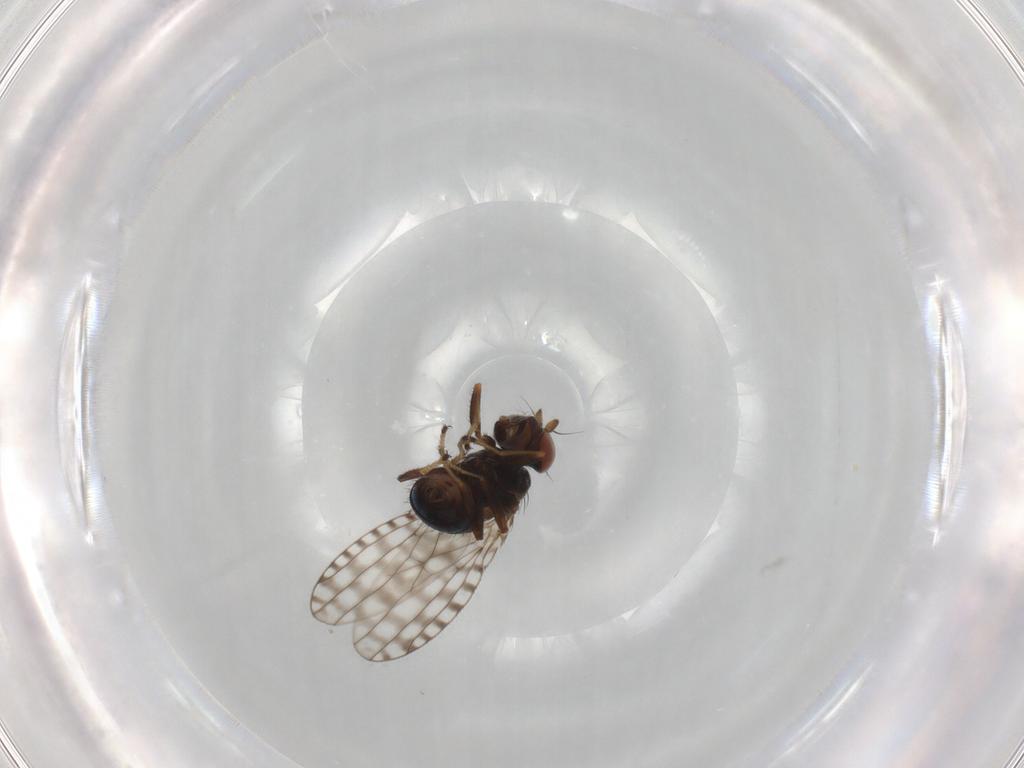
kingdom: Animalia
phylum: Arthropoda
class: Insecta
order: Diptera
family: Ephydridae
